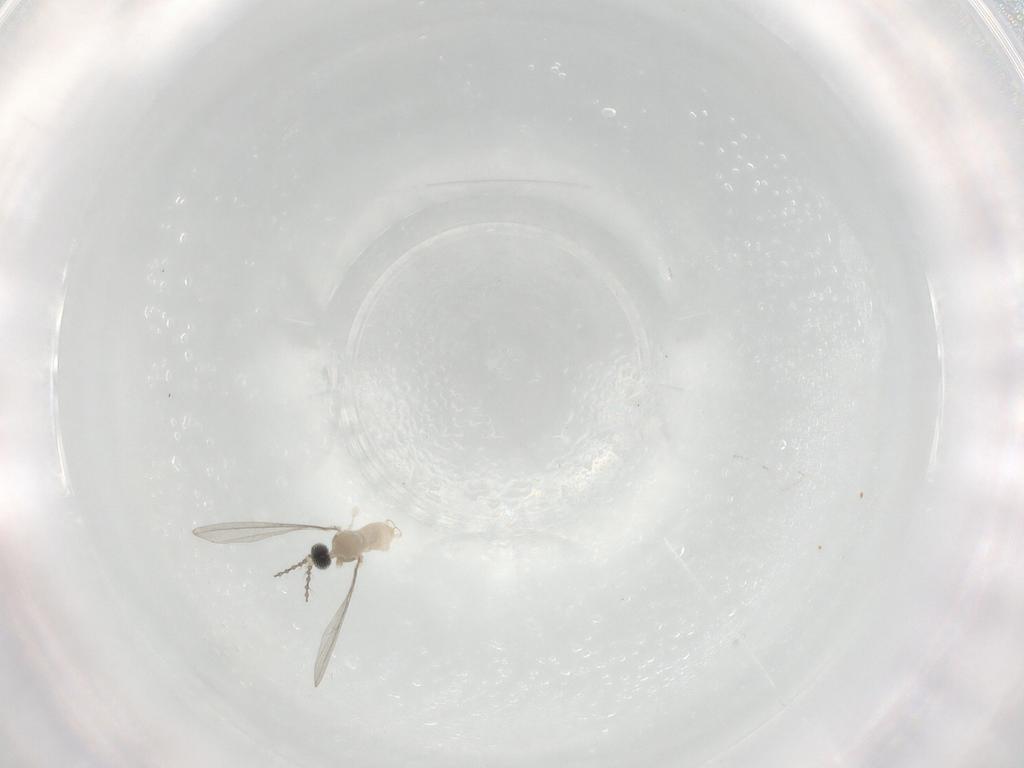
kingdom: Animalia
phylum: Arthropoda
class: Insecta
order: Diptera
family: Cecidomyiidae
